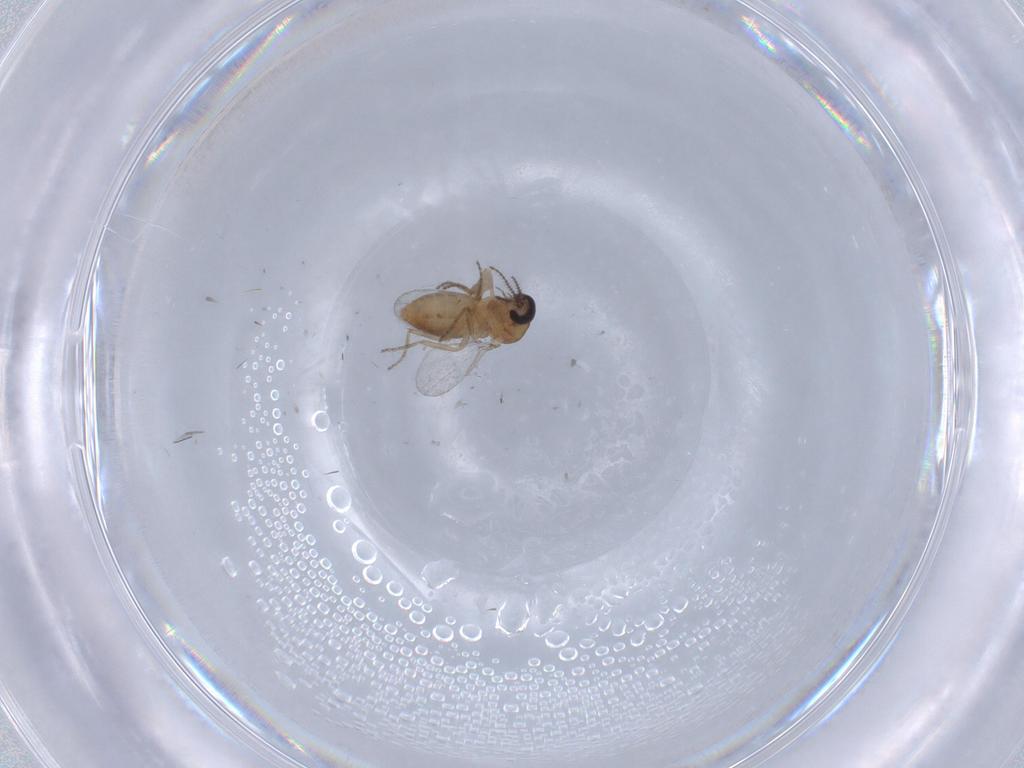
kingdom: Animalia
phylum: Arthropoda
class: Insecta
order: Diptera
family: Ceratopogonidae
